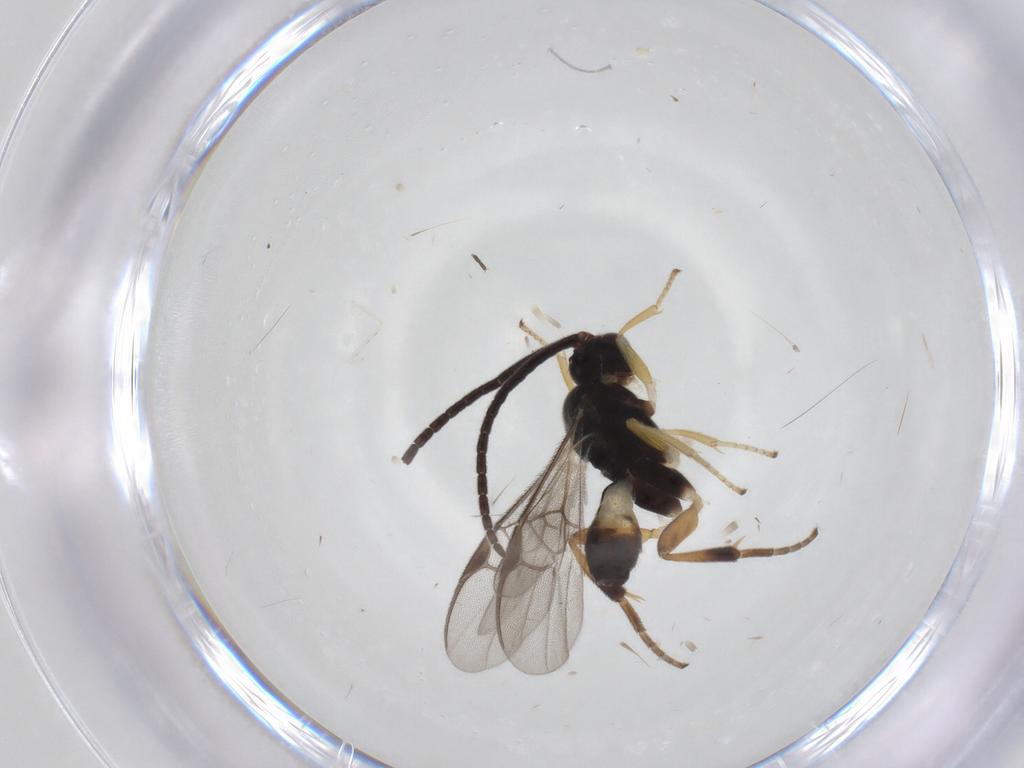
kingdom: Animalia
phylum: Arthropoda
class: Insecta
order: Hymenoptera
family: Braconidae
